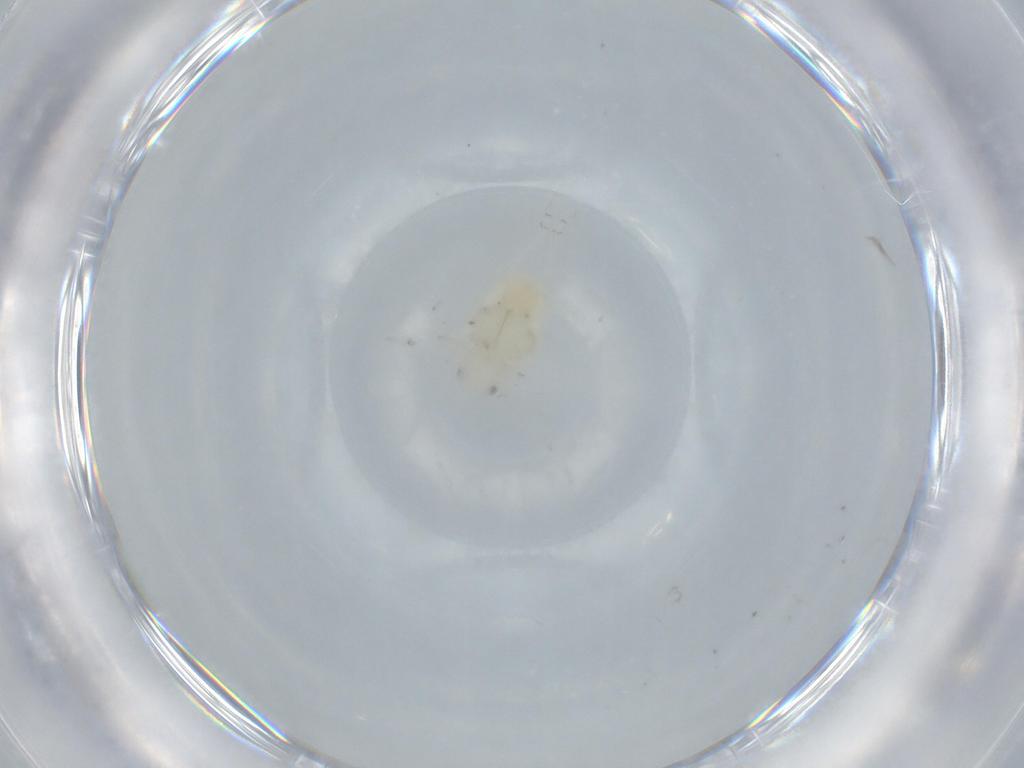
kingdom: Animalia
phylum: Arthropoda
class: Insecta
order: Hemiptera
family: Flatidae
